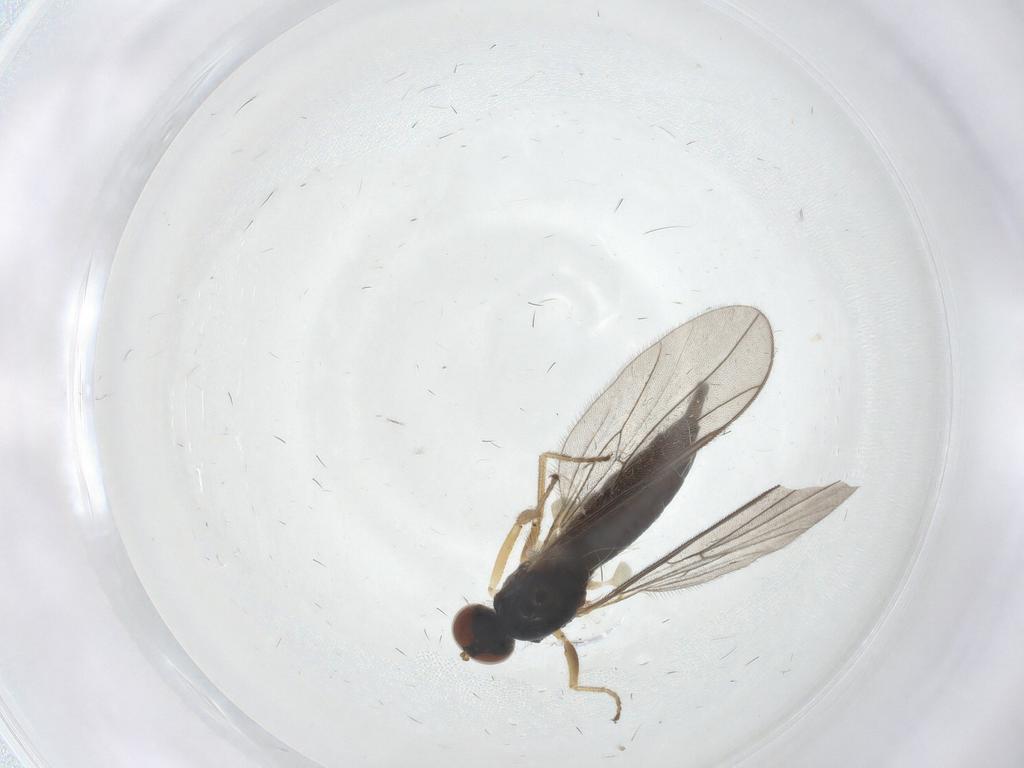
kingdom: Animalia
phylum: Arthropoda
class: Insecta
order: Diptera
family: Hybotidae
